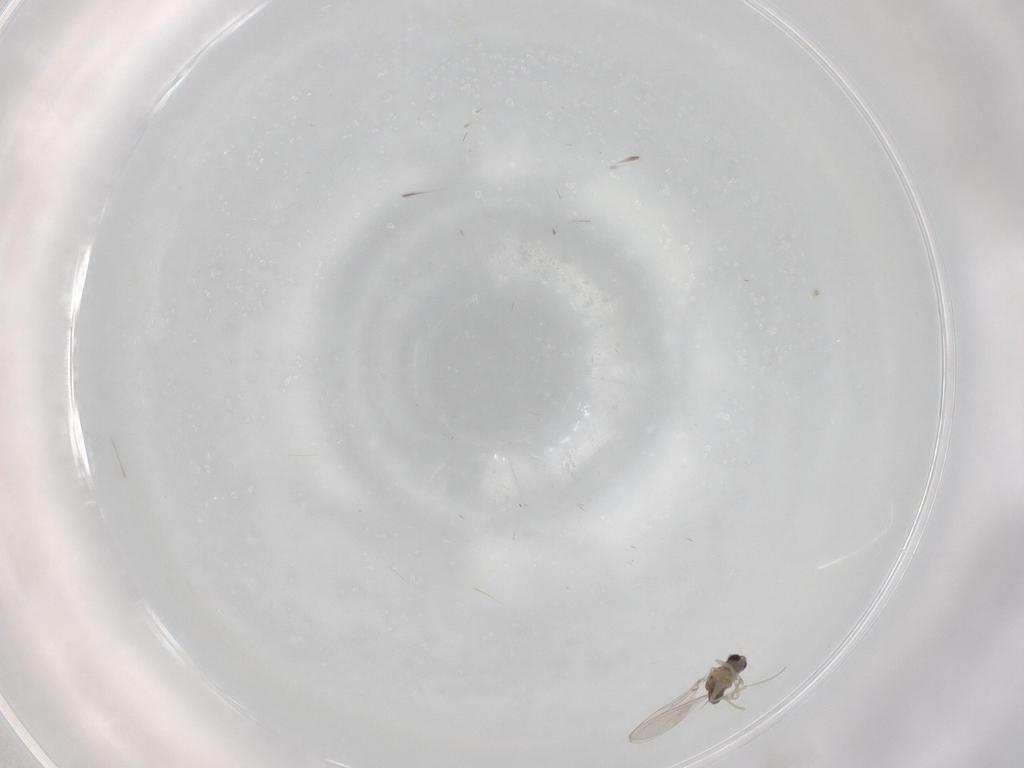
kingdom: Animalia
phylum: Arthropoda
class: Insecta
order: Diptera
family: Cecidomyiidae
